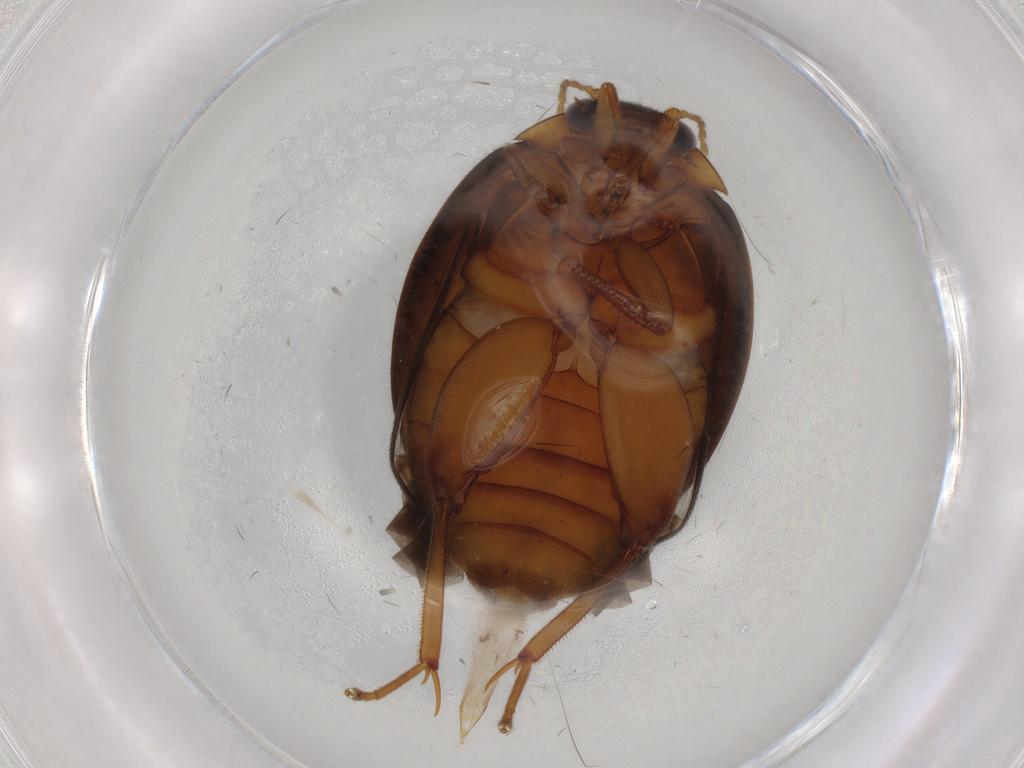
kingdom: Animalia
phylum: Arthropoda
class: Insecta
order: Coleoptera
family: Scirtidae
